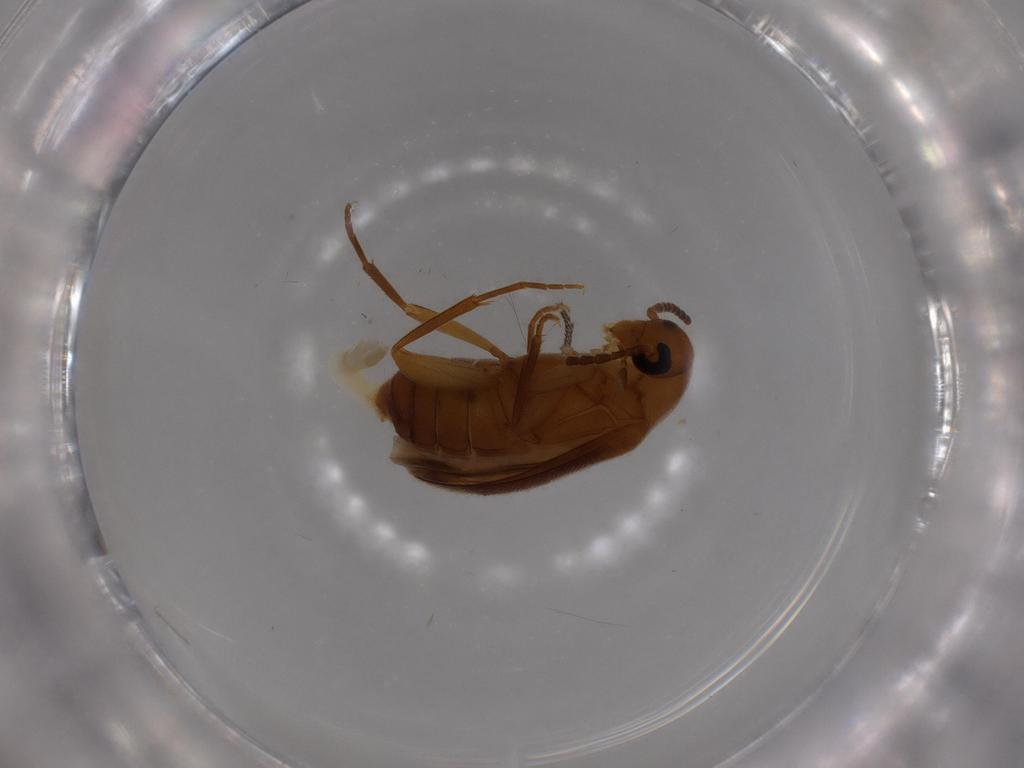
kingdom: Animalia
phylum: Arthropoda
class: Insecta
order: Coleoptera
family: Scraptiidae
